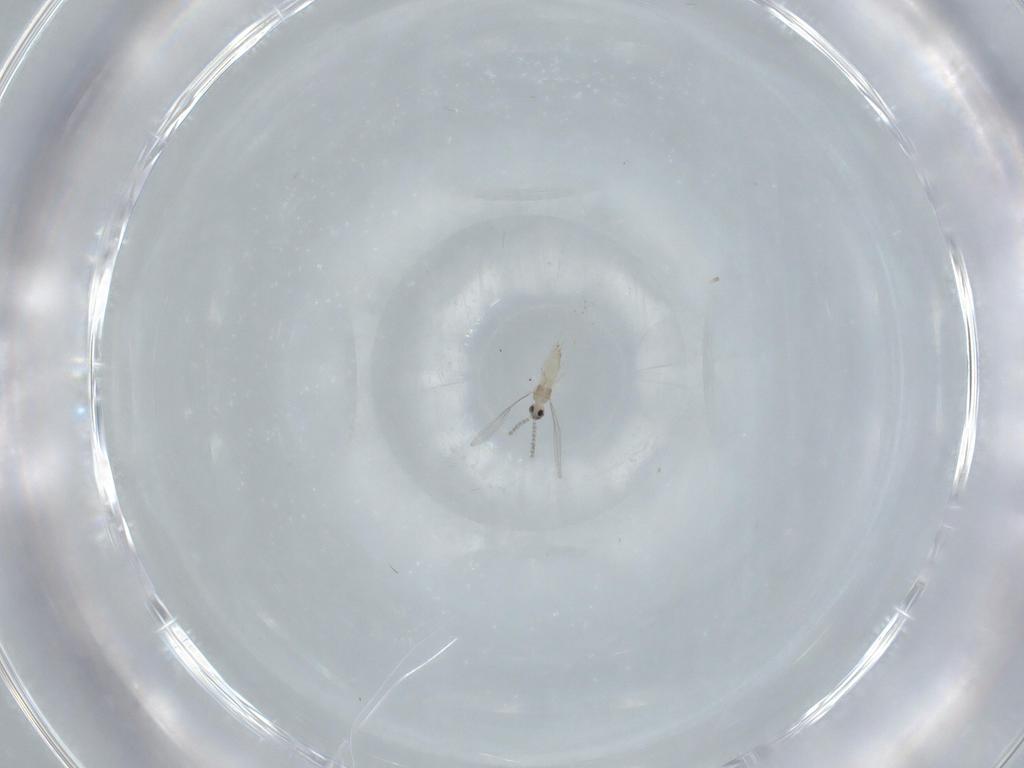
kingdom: Animalia
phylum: Arthropoda
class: Insecta
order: Diptera
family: Cecidomyiidae
